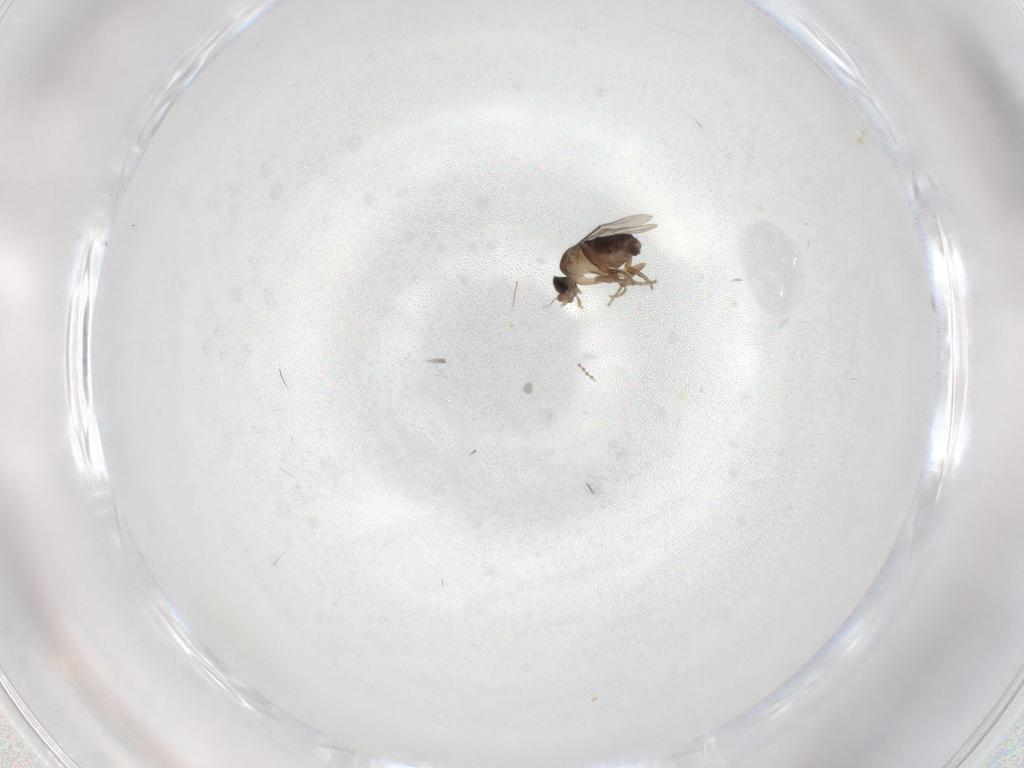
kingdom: Animalia
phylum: Arthropoda
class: Insecta
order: Diptera
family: Phoridae
